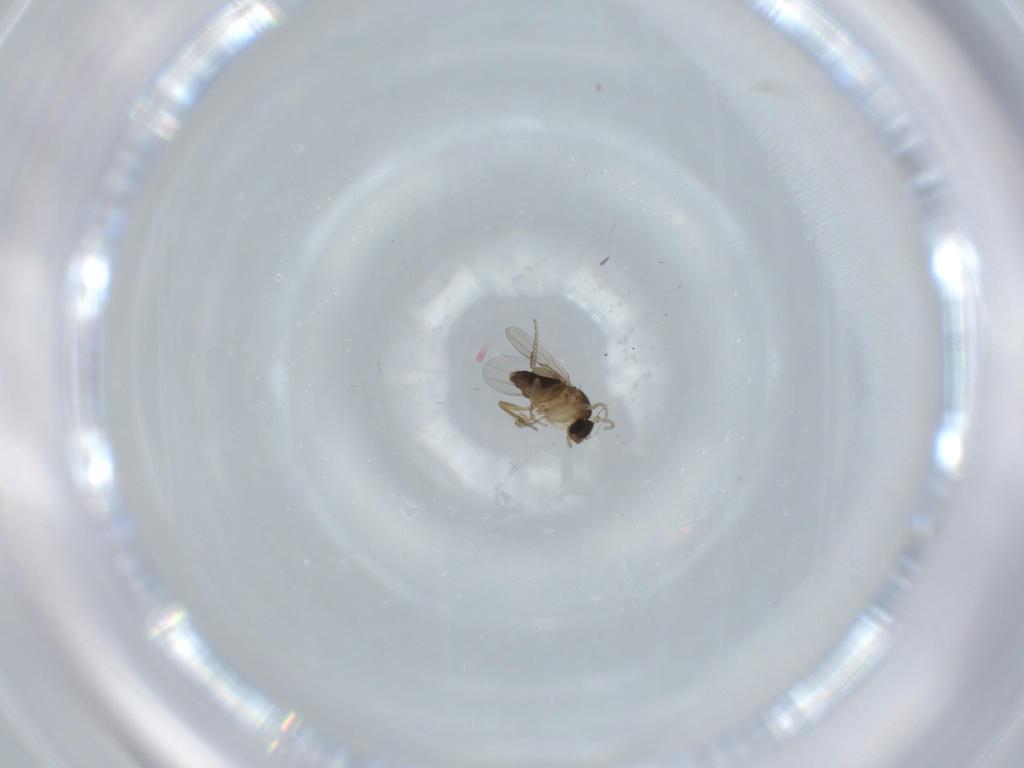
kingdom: Animalia
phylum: Arthropoda
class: Insecta
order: Diptera
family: Phoridae
